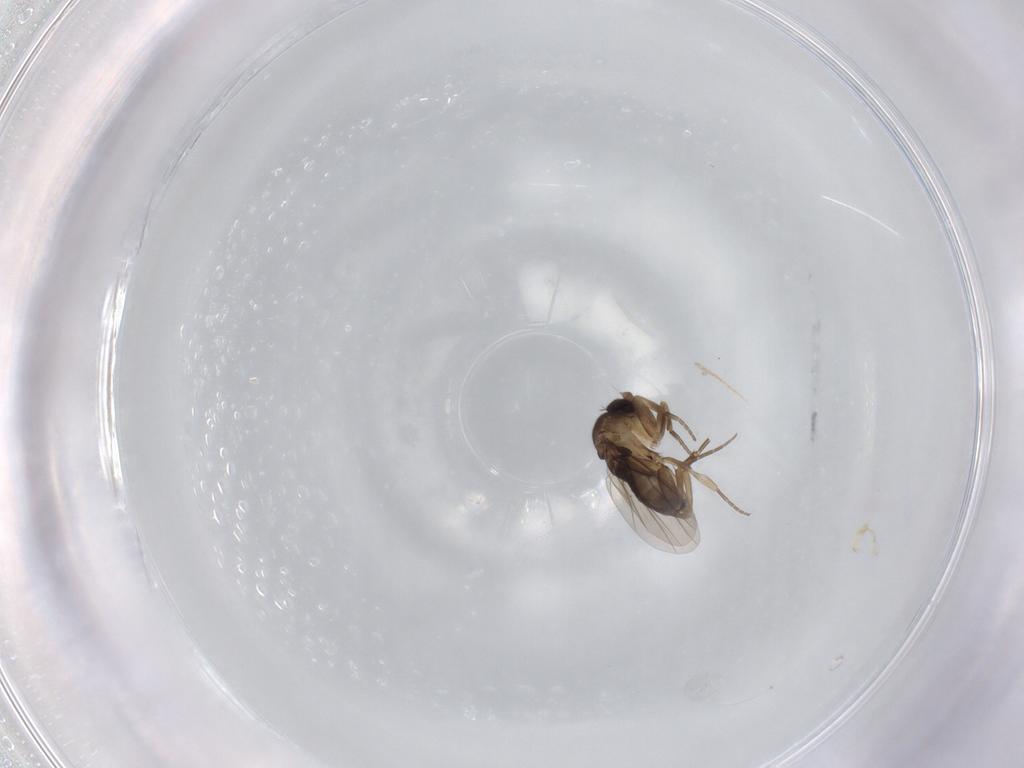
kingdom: Animalia
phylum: Arthropoda
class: Insecta
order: Diptera
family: Phoridae
